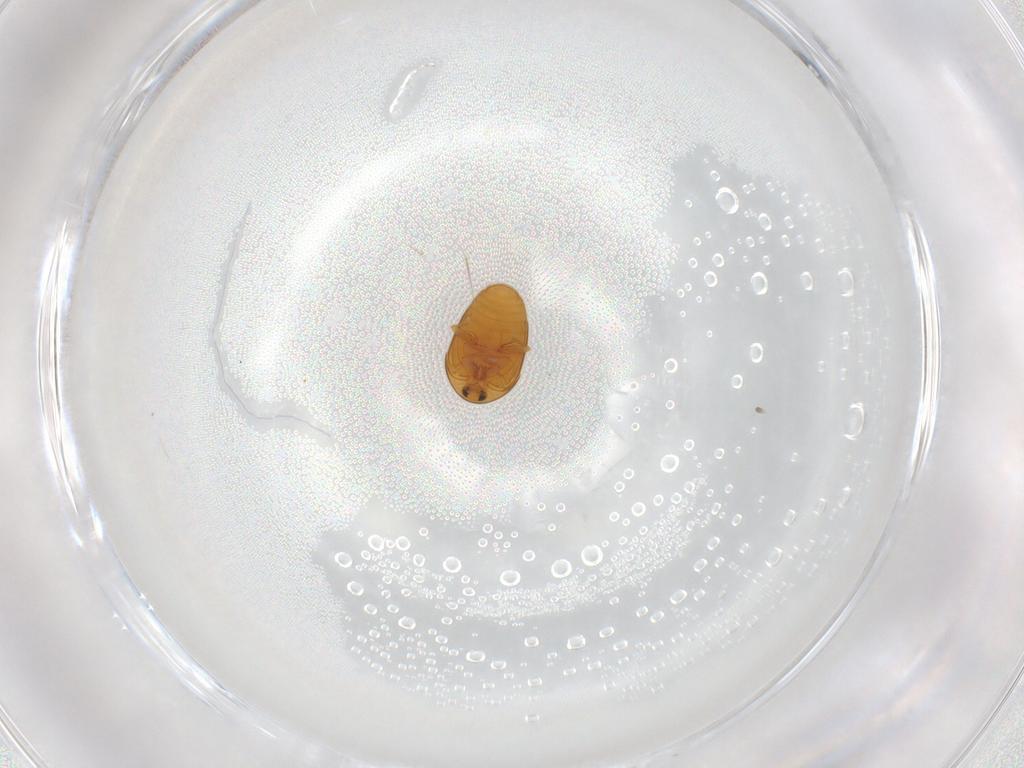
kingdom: Animalia
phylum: Arthropoda
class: Insecta
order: Coleoptera
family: Corylophidae
